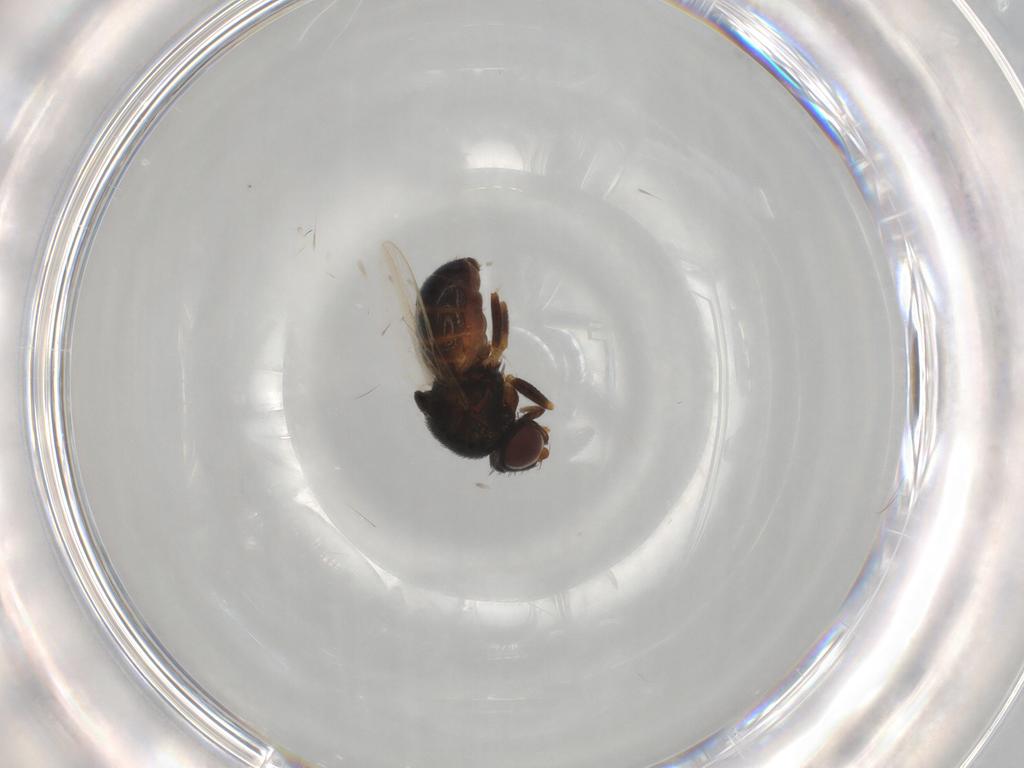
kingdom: Animalia
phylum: Arthropoda
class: Insecta
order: Diptera
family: Chloropidae
